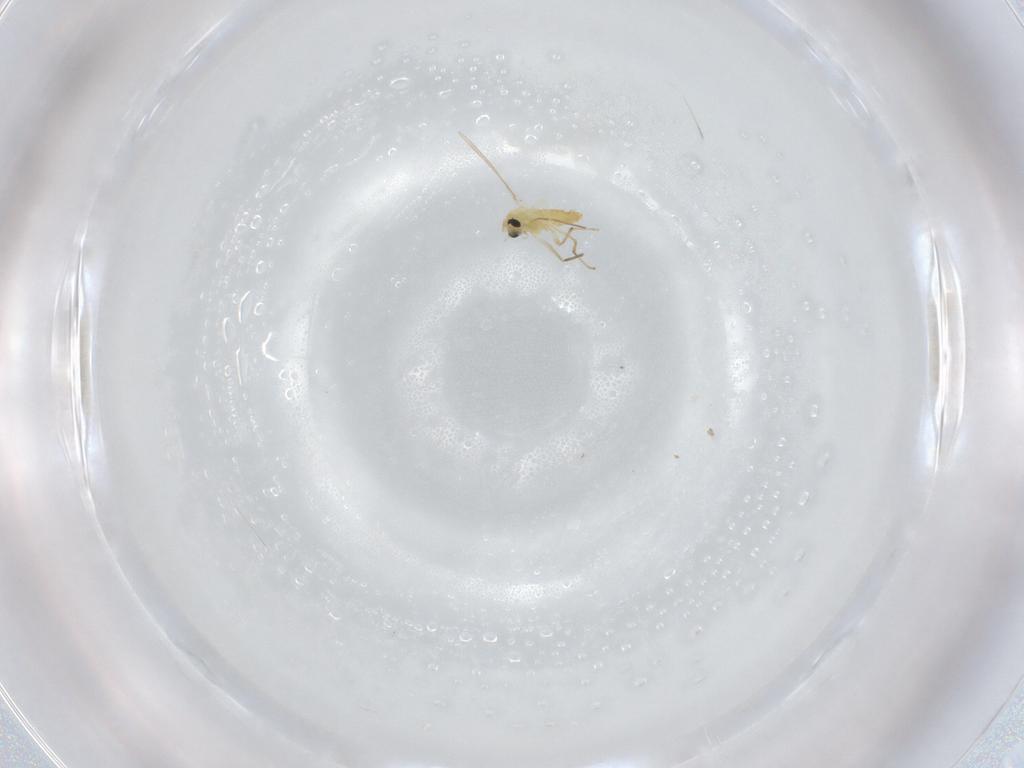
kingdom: Animalia
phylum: Arthropoda
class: Insecta
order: Diptera
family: Chironomidae
